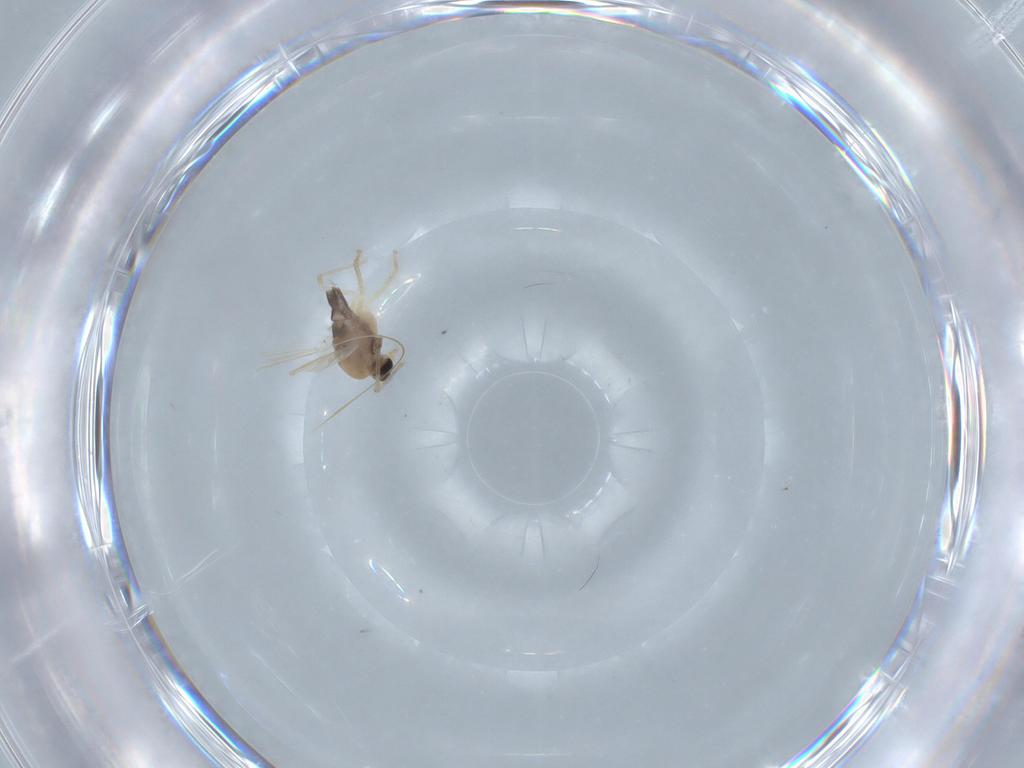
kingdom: Animalia
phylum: Arthropoda
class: Insecta
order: Diptera
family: Chironomidae
